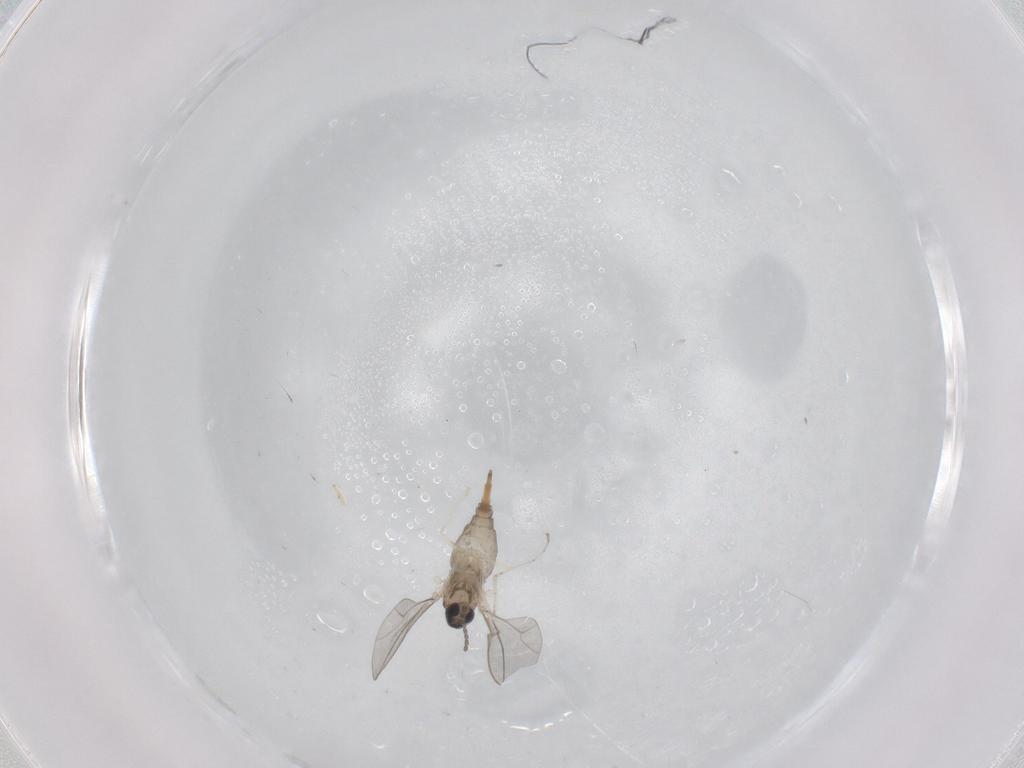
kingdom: Animalia
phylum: Arthropoda
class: Insecta
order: Diptera
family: Cecidomyiidae
